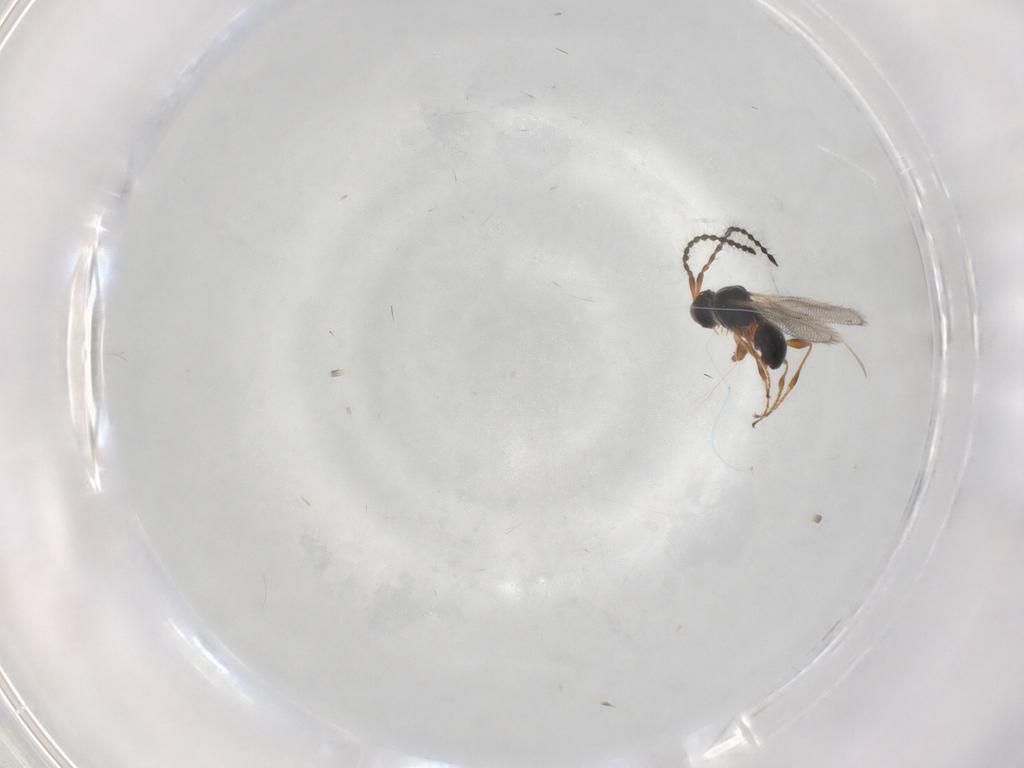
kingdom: Animalia
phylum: Arthropoda
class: Insecta
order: Hymenoptera
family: Diapriidae
